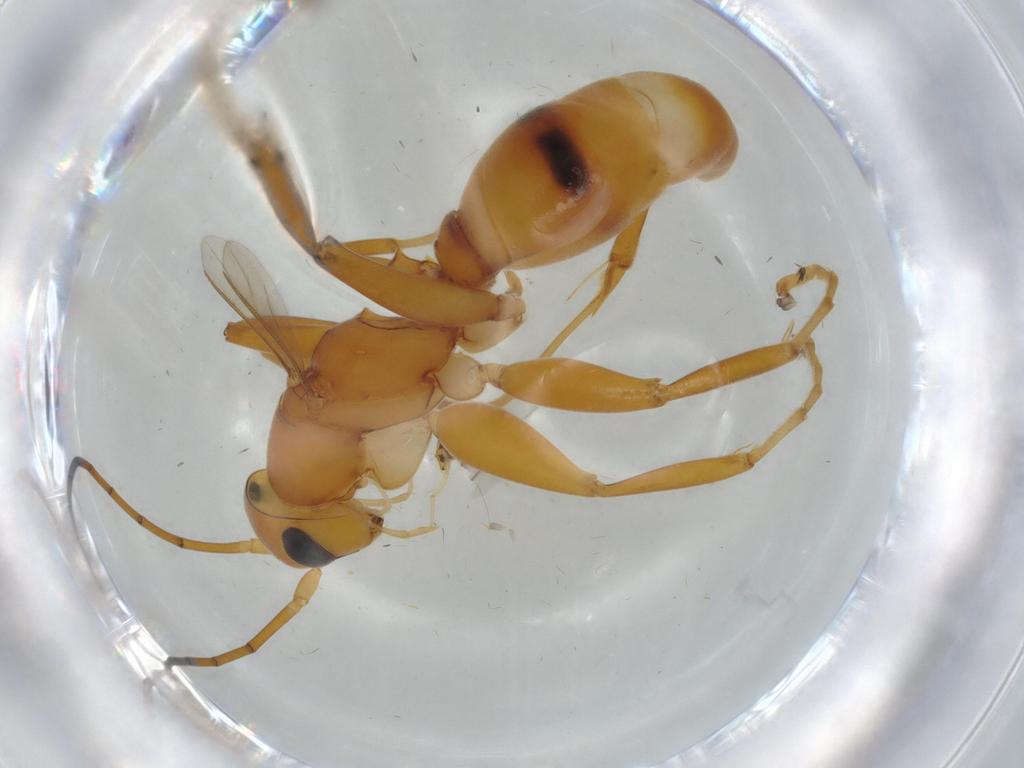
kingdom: Animalia
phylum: Arthropoda
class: Insecta
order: Hymenoptera
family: Rhopalosomatidae
